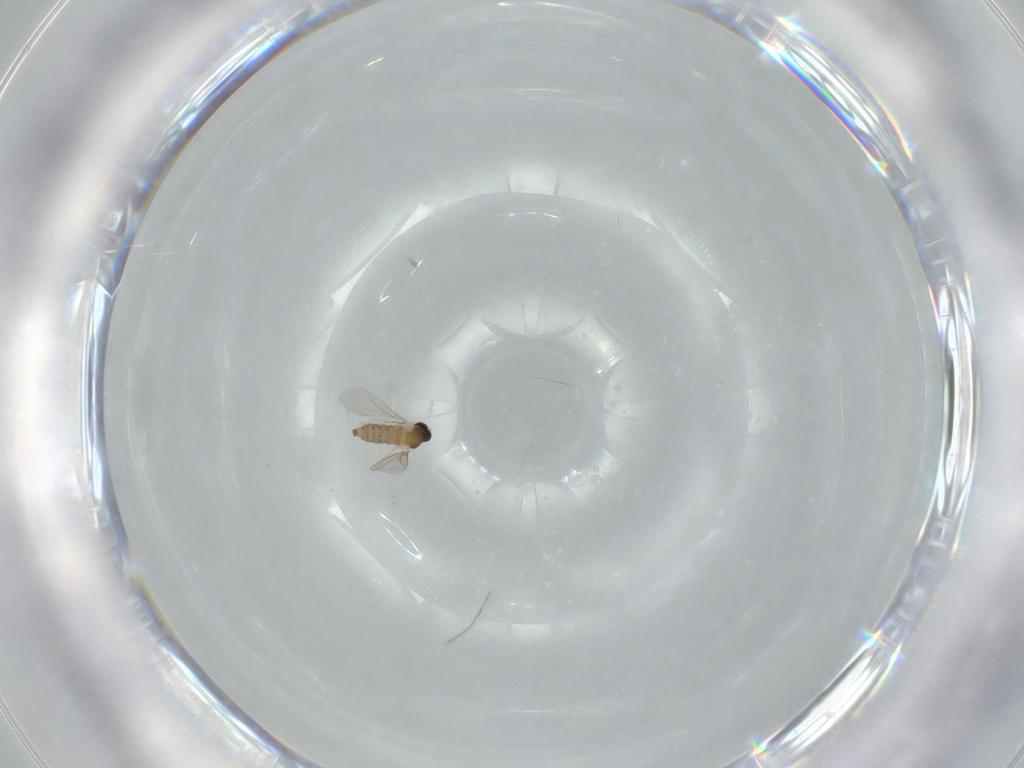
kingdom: Animalia
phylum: Arthropoda
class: Insecta
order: Diptera
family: Cecidomyiidae
